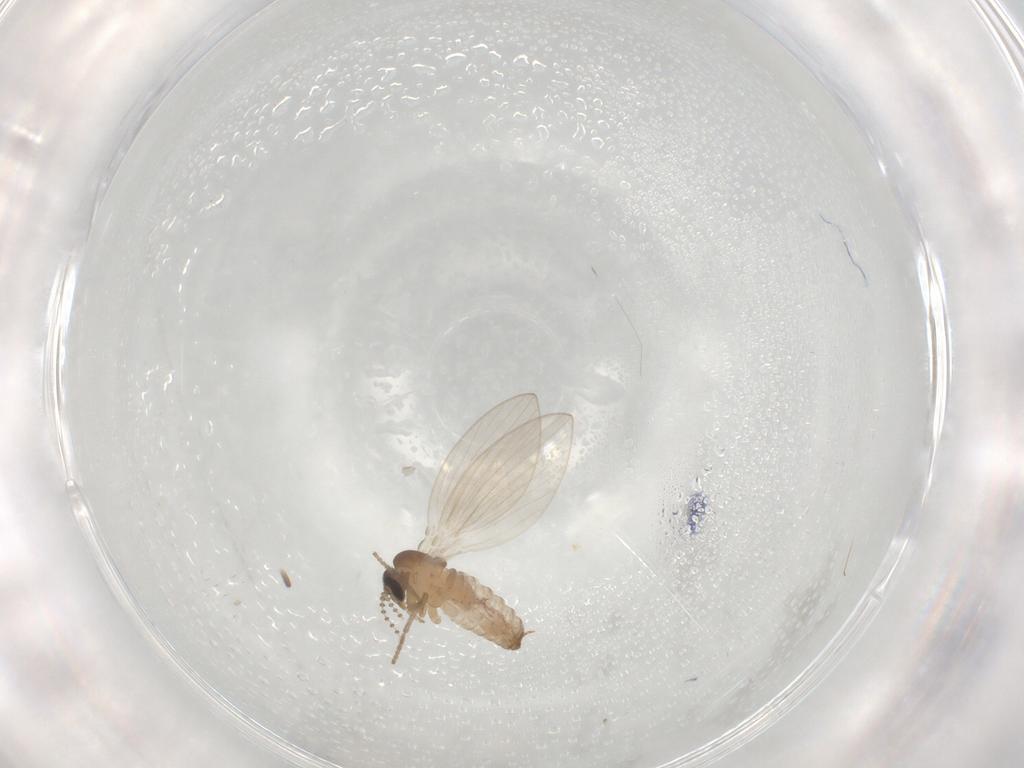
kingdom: Animalia
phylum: Arthropoda
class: Insecta
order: Diptera
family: Psychodidae
